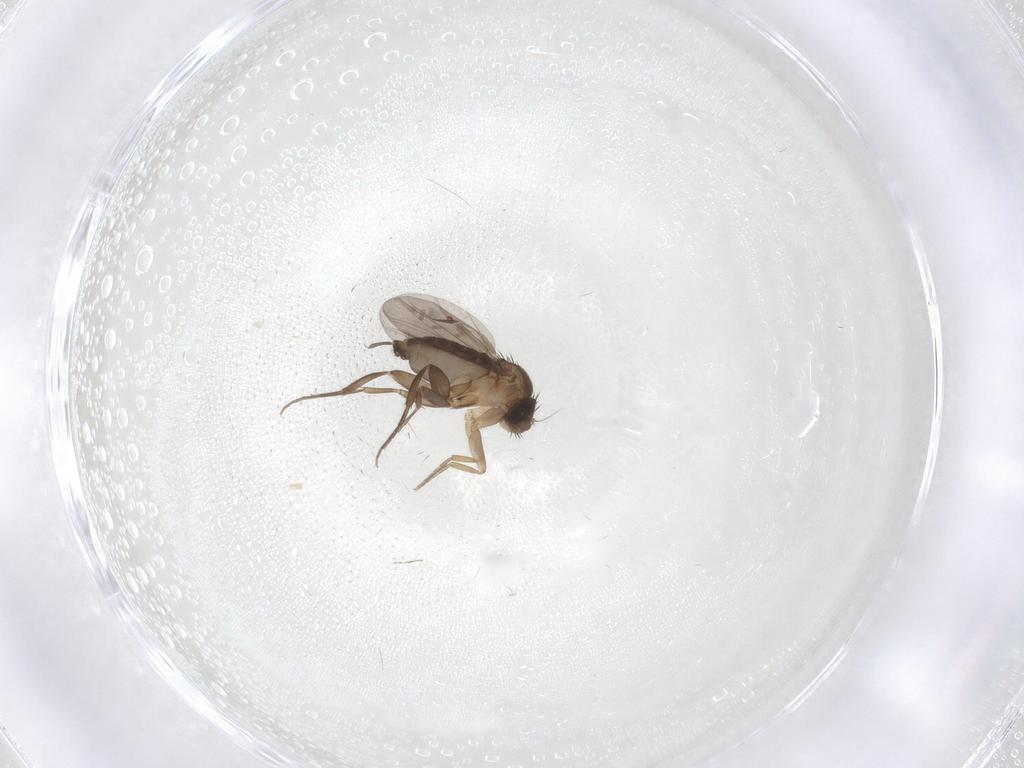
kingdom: Animalia
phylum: Arthropoda
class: Insecta
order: Diptera
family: Phoridae
